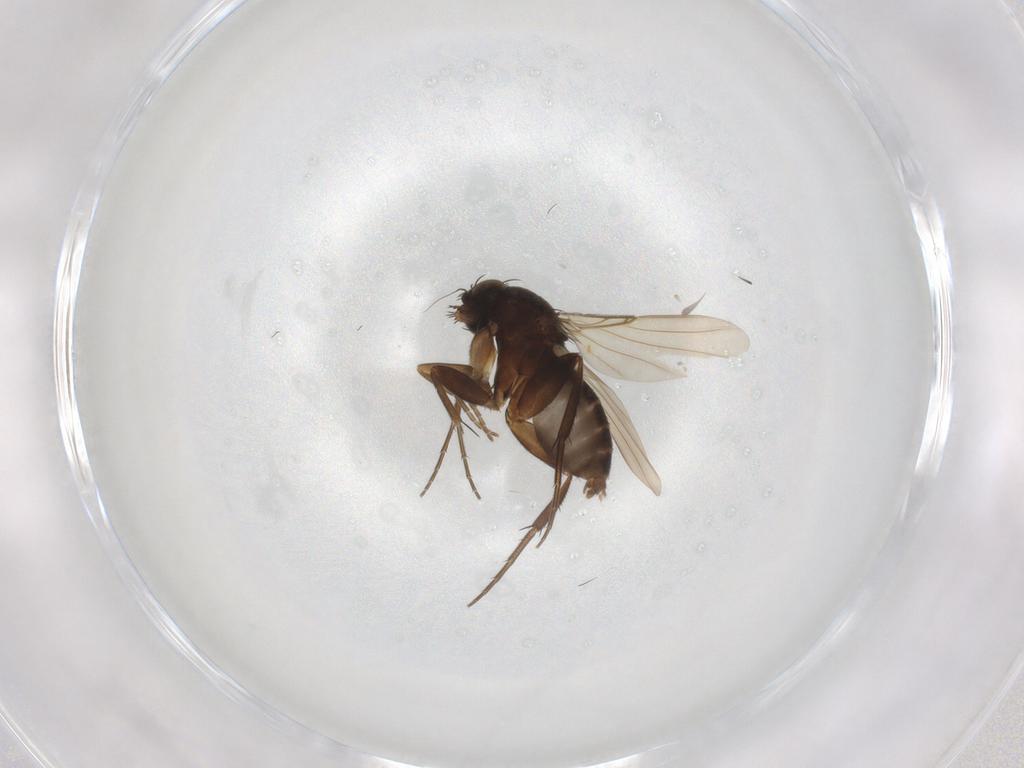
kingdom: Animalia
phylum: Arthropoda
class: Insecta
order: Diptera
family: Phoridae
